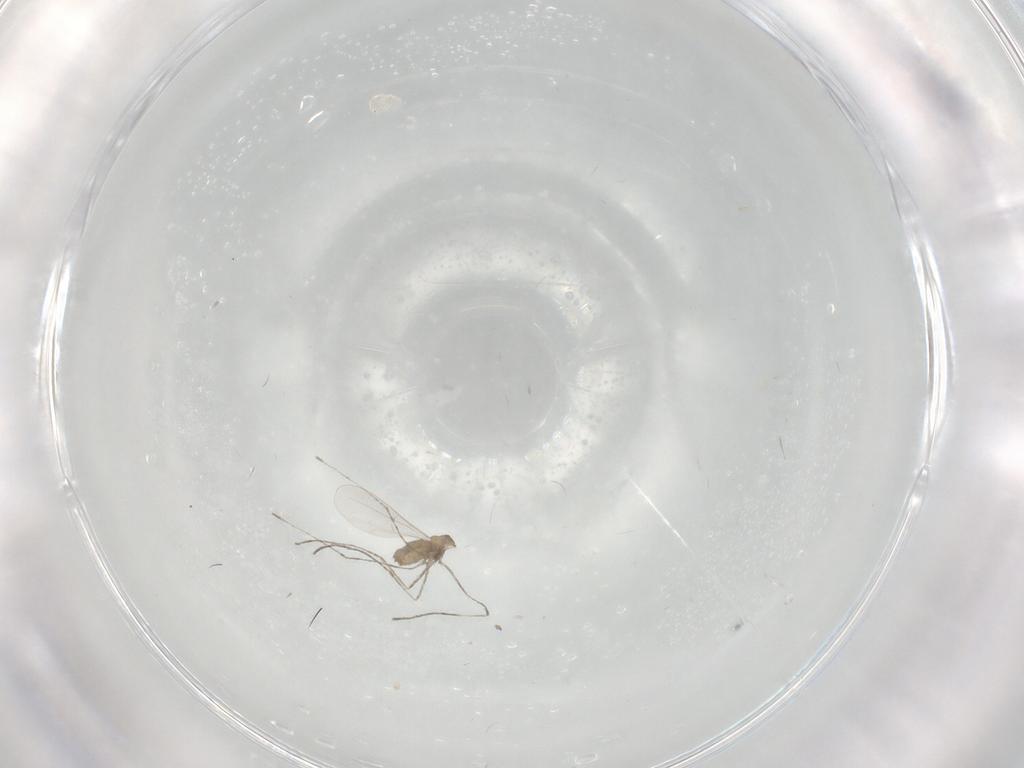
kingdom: Animalia
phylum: Arthropoda
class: Insecta
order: Diptera
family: Cecidomyiidae
